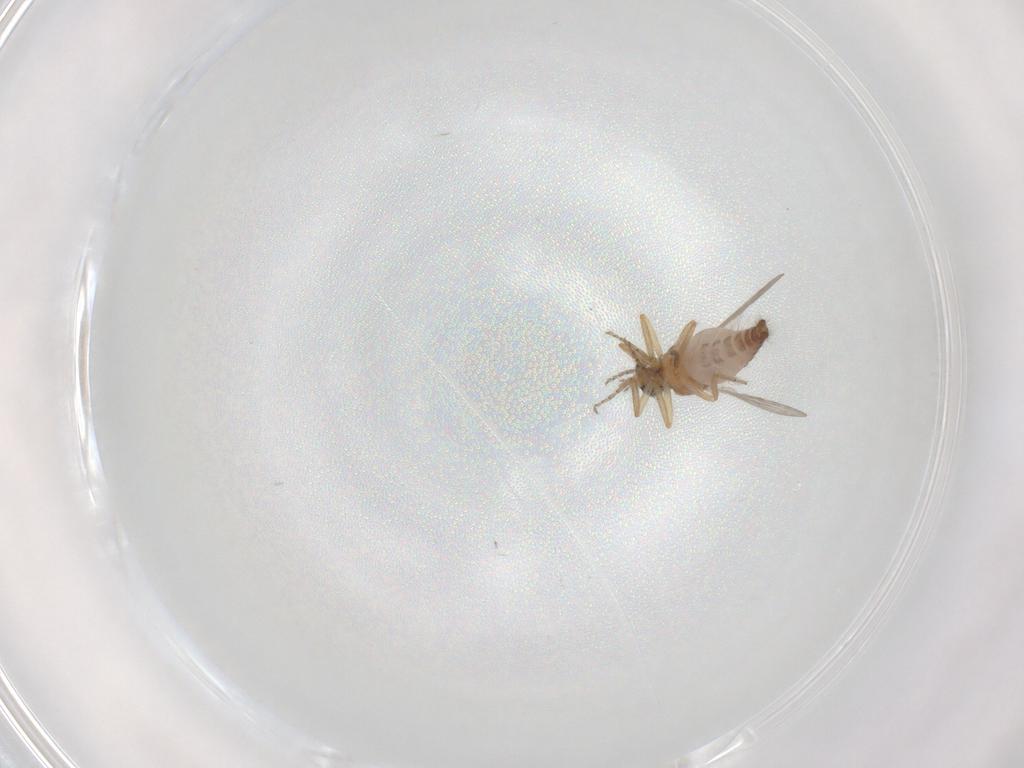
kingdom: Animalia
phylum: Arthropoda
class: Insecta
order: Diptera
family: Ceratopogonidae
